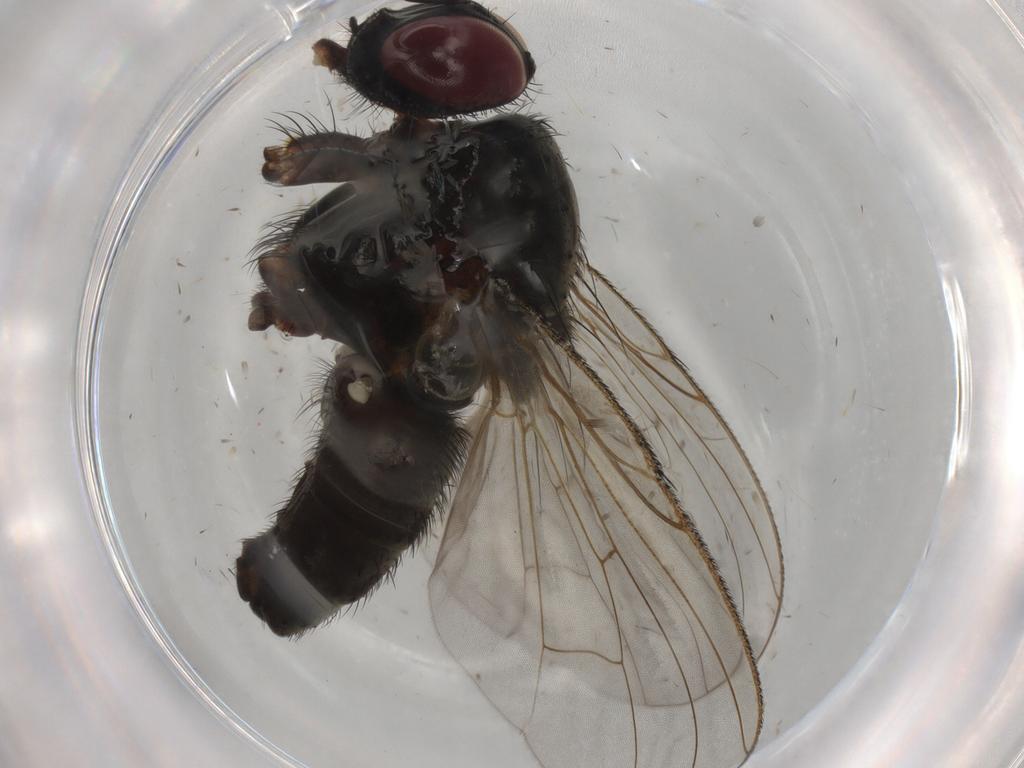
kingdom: Animalia
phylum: Arthropoda
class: Insecta
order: Diptera
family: Muscidae
